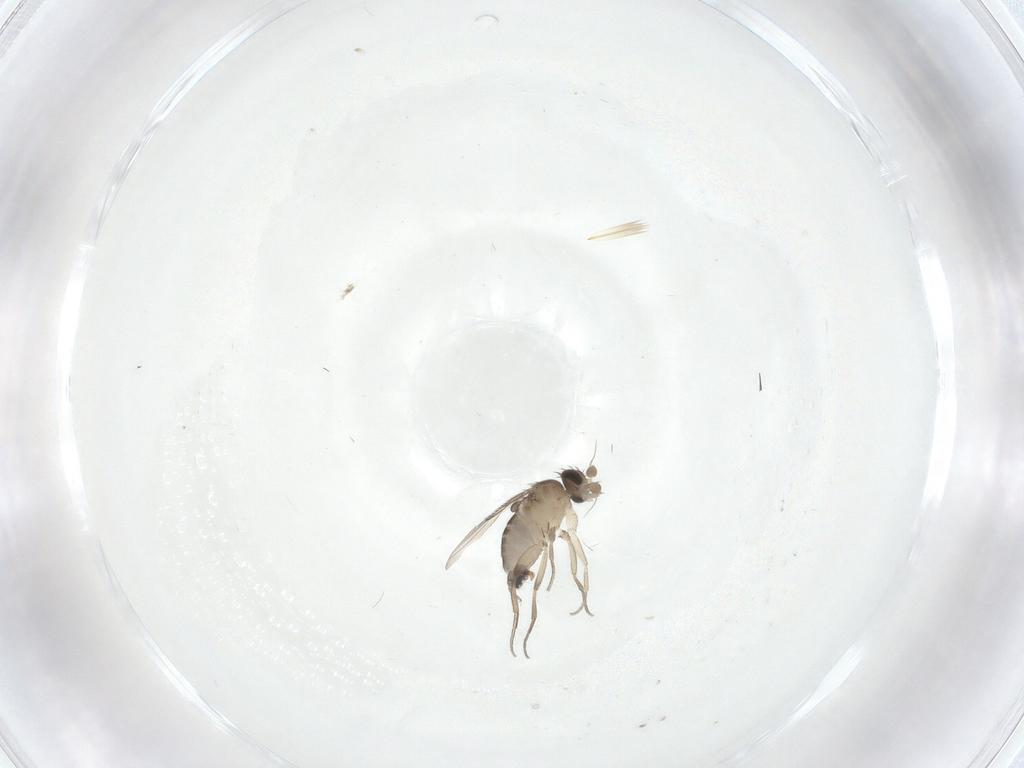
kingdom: Animalia
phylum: Arthropoda
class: Insecta
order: Diptera
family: Phoridae
